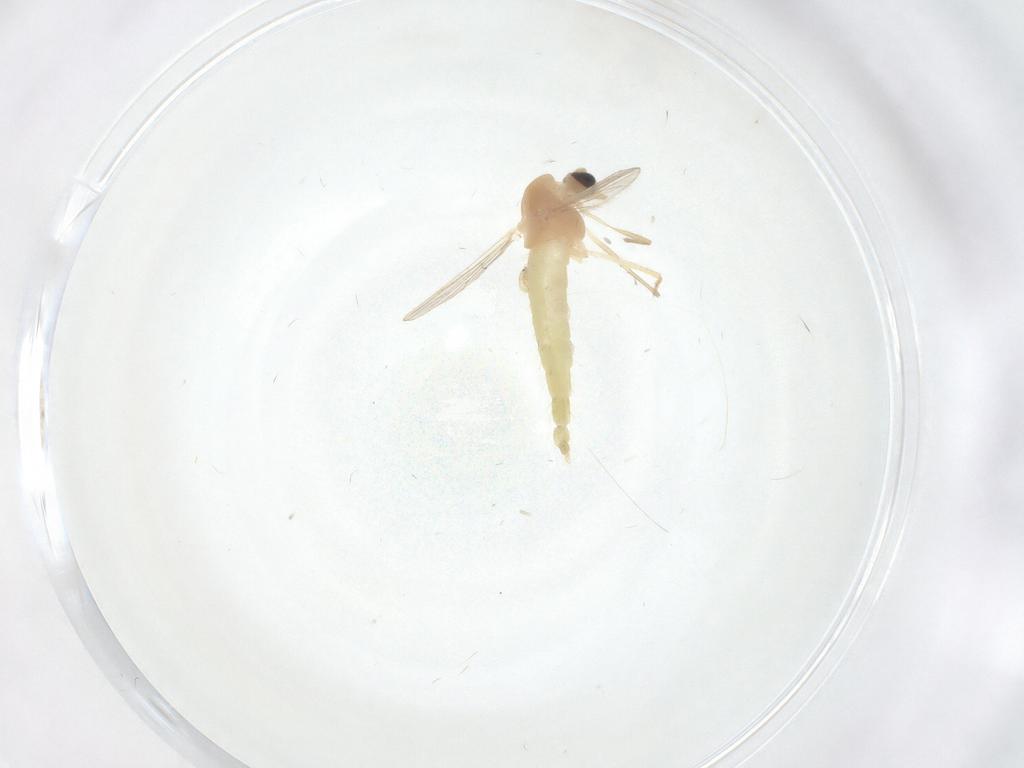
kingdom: Animalia
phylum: Arthropoda
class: Insecta
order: Diptera
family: Chironomidae
